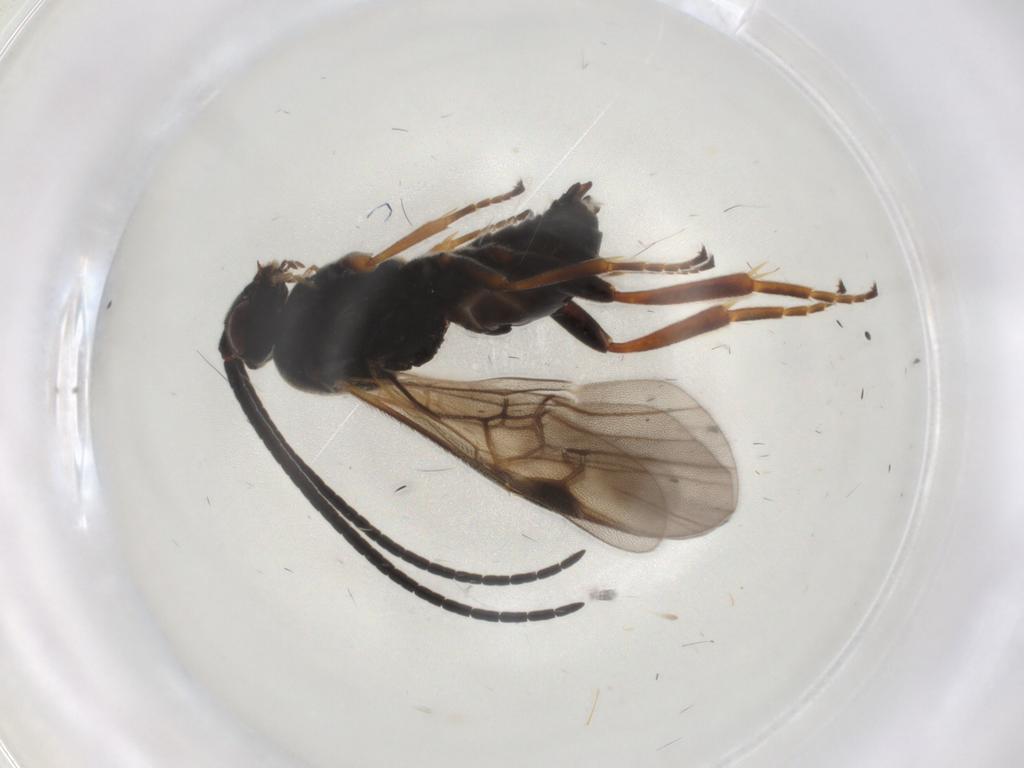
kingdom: Animalia
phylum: Arthropoda
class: Insecta
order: Hymenoptera
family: Braconidae
